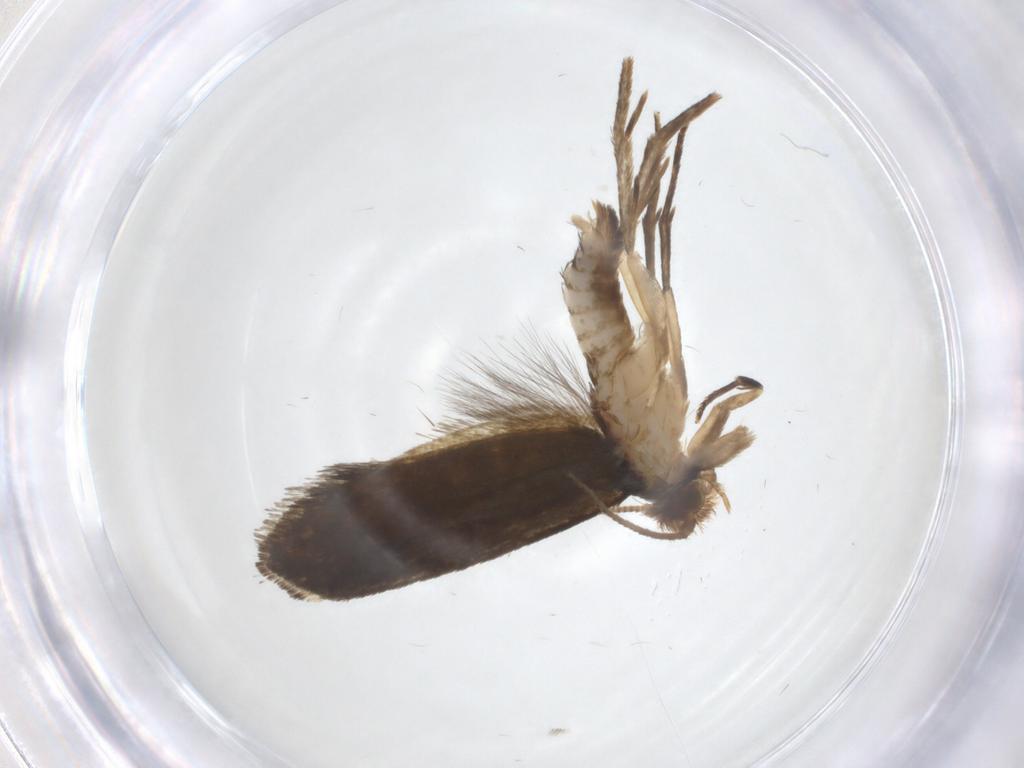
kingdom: Animalia
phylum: Arthropoda
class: Insecta
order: Lepidoptera
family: Tineidae
